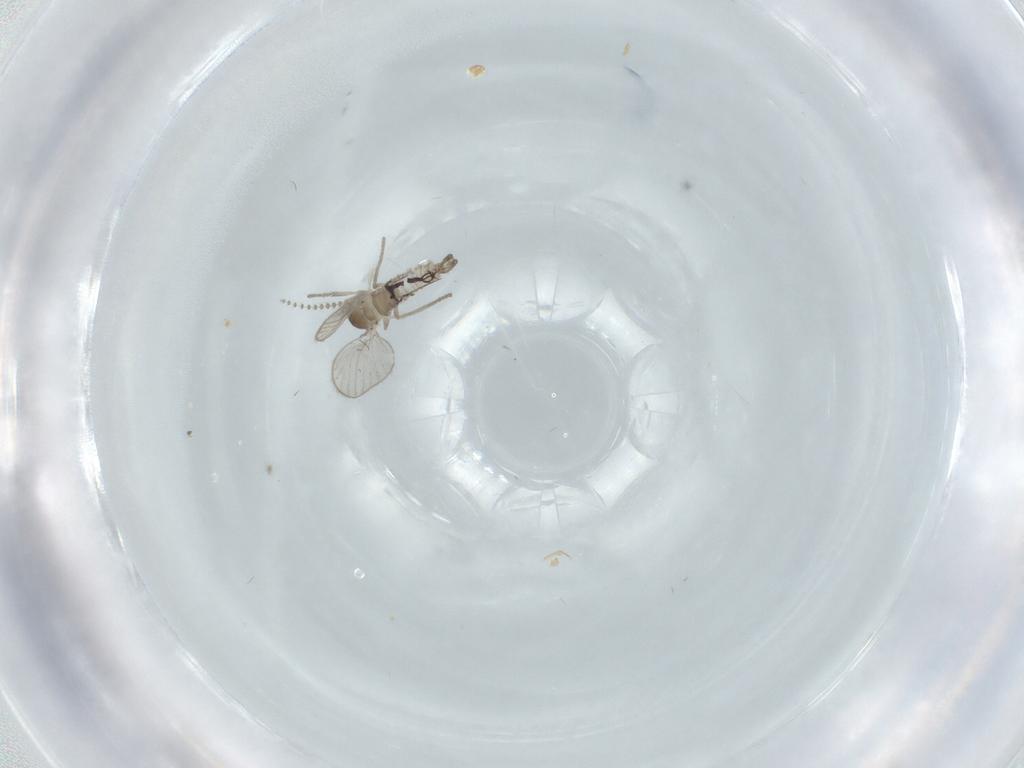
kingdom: Animalia
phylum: Arthropoda
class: Insecta
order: Diptera
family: Psychodidae
